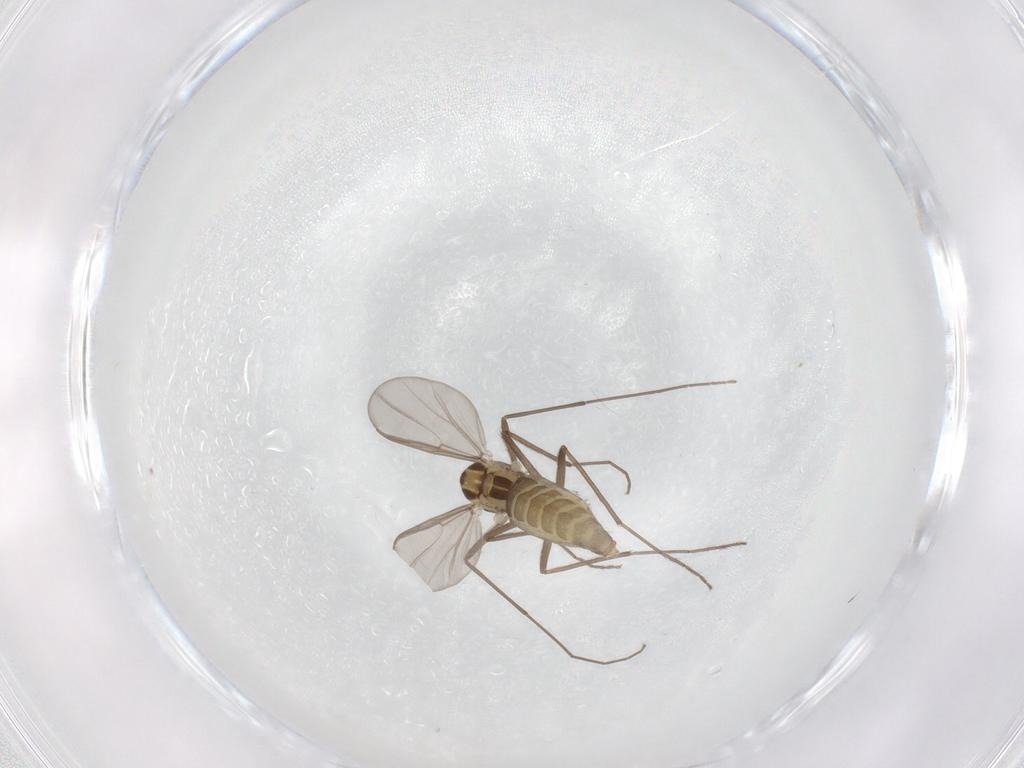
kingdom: Animalia
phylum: Arthropoda
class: Insecta
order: Diptera
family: Chironomidae
